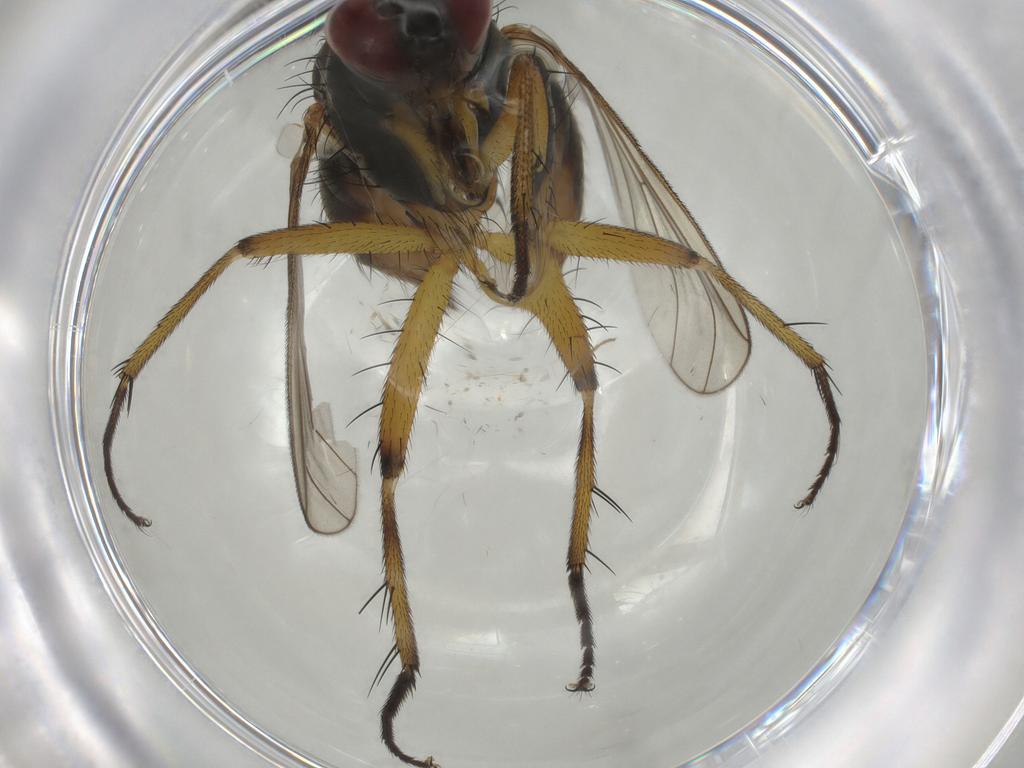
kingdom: Animalia
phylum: Arthropoda
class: Insecta
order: Diptera
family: Muscidae
